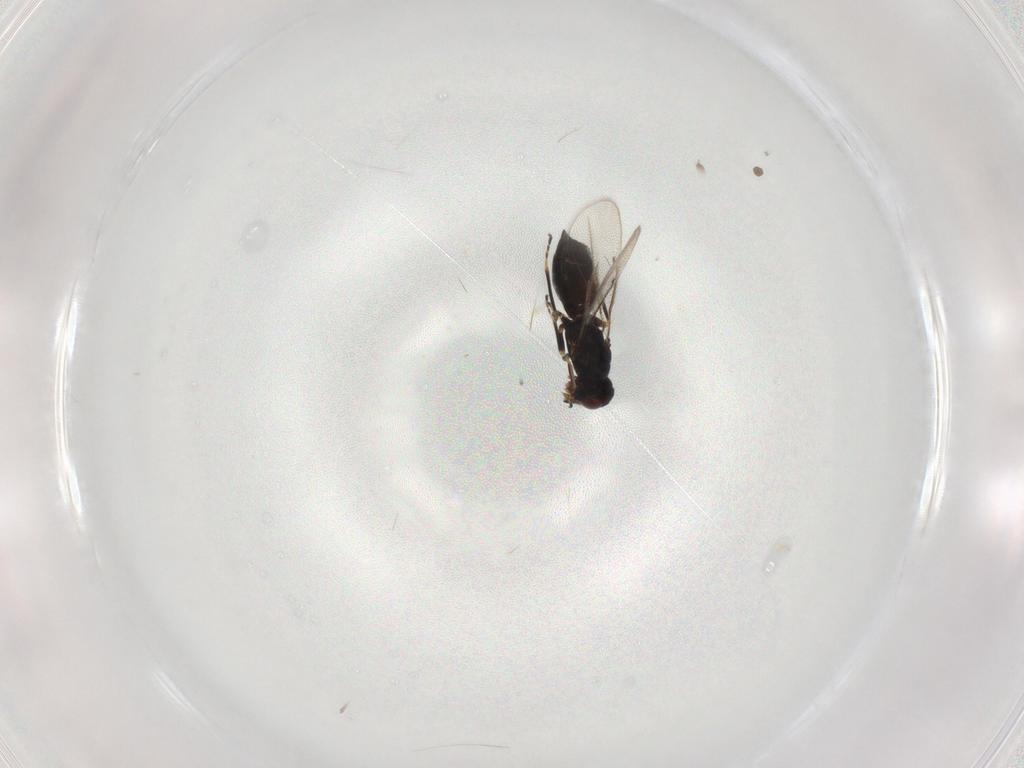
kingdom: Animalia
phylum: Arthropoda
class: Insecta
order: Hymenoptera
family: Eulophidae
